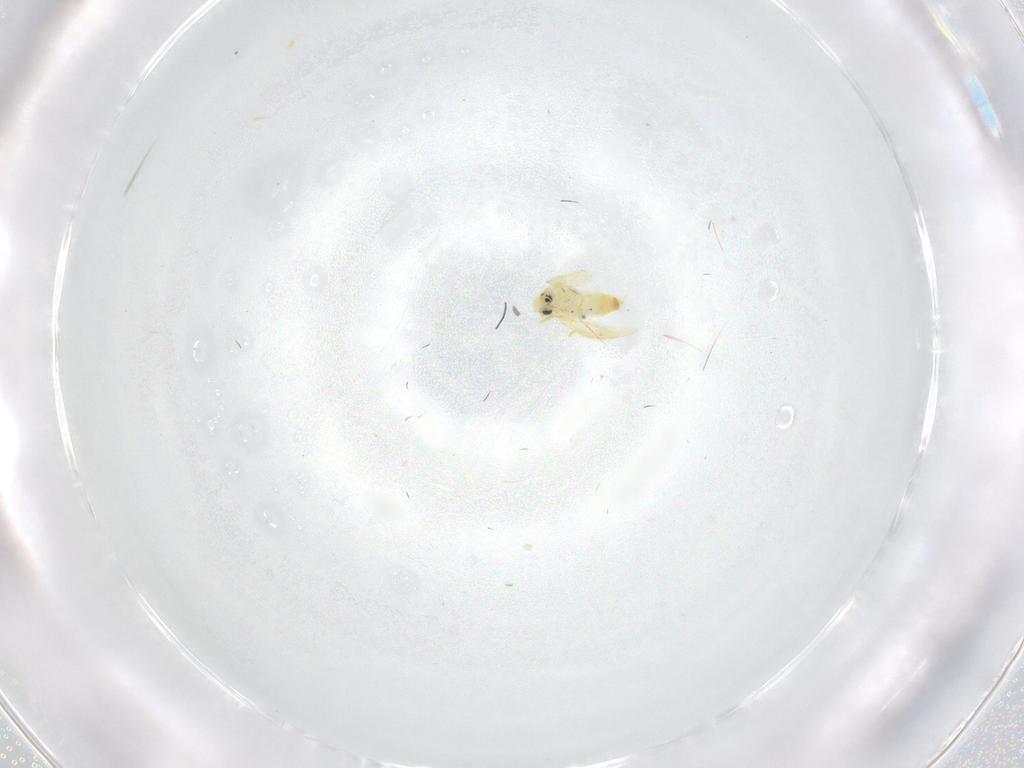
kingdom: Animalia
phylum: Arthropoda
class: Insecta
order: Hemiptera
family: Aleyrodidae
